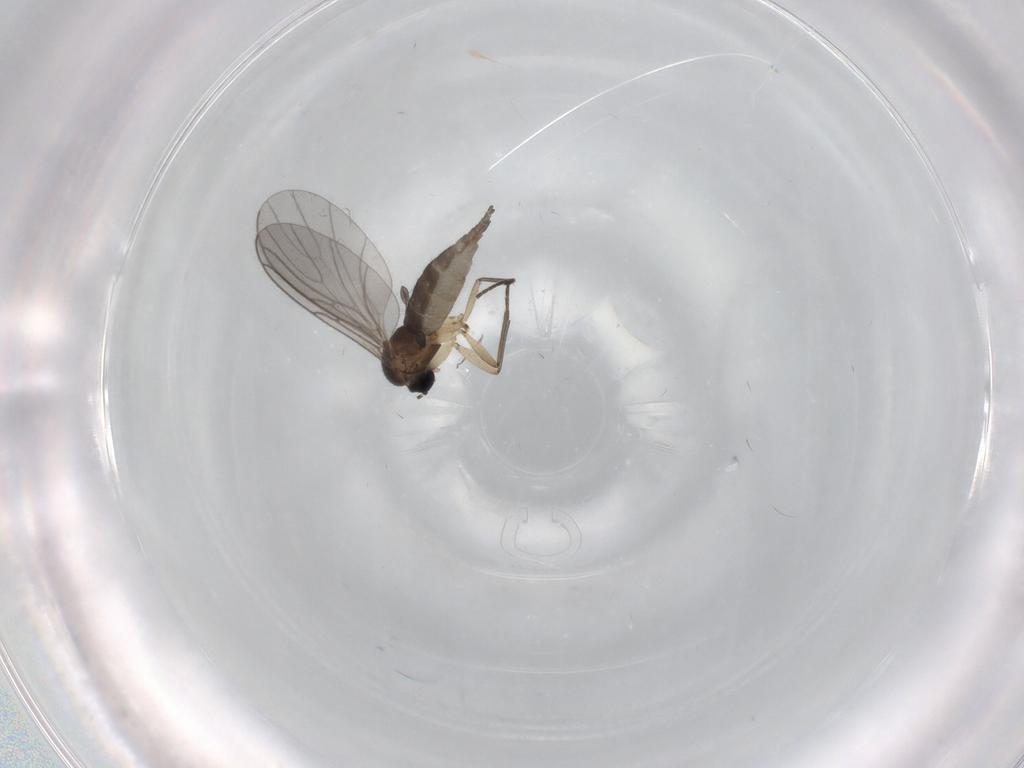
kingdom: Animalia
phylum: Arthropoda
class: Insecta
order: Diptera
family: Sciaridae
